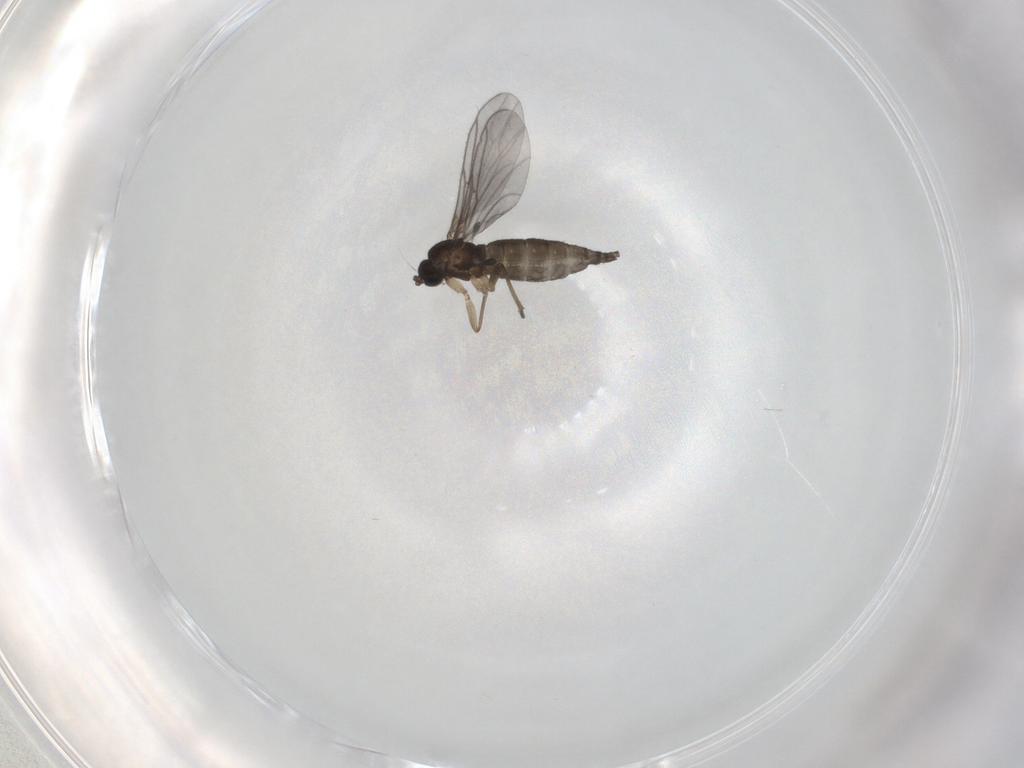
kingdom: Animalia
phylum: Arthropoda
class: Insecta
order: Diptera
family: Sciaridae
